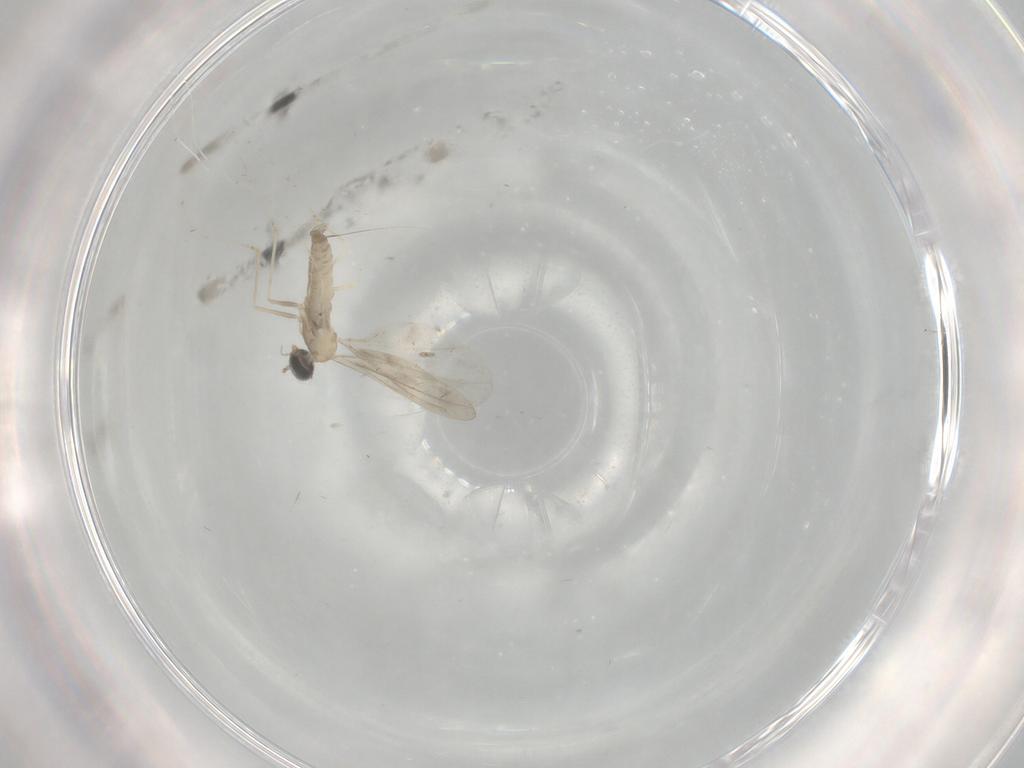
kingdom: Animalia
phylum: Arthropoda
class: Insecta
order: Diptera
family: Cecidomyiidae
